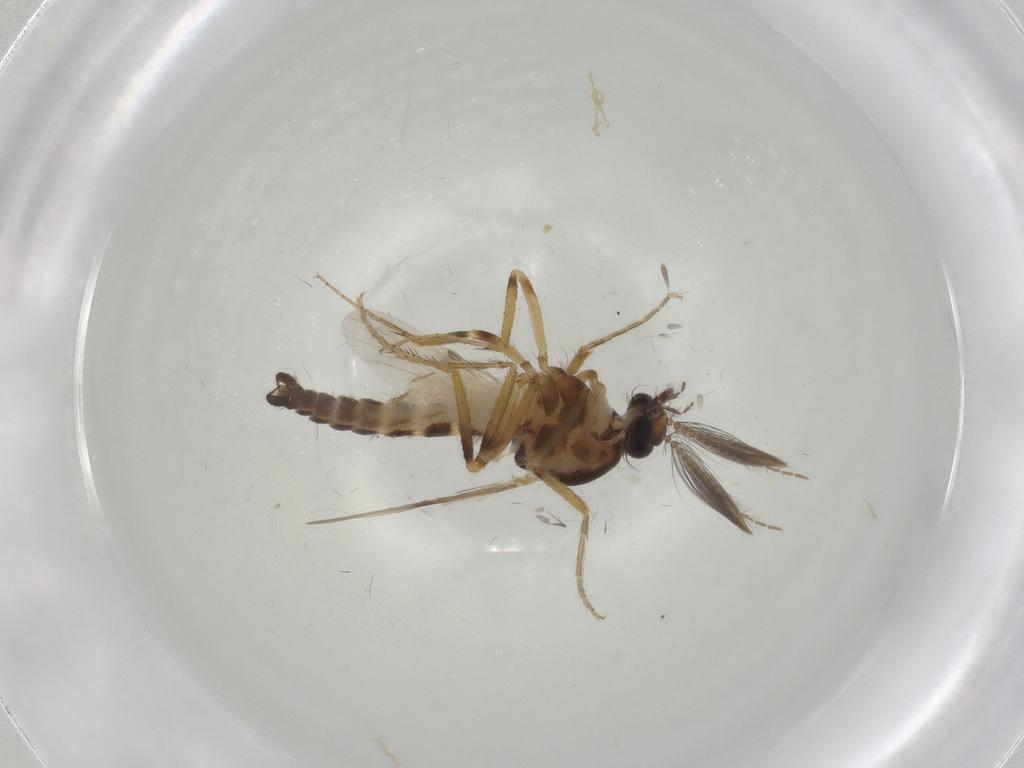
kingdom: Animalia
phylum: Arthropoda
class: Insecta
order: Diptera
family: Ceratopogonidae
